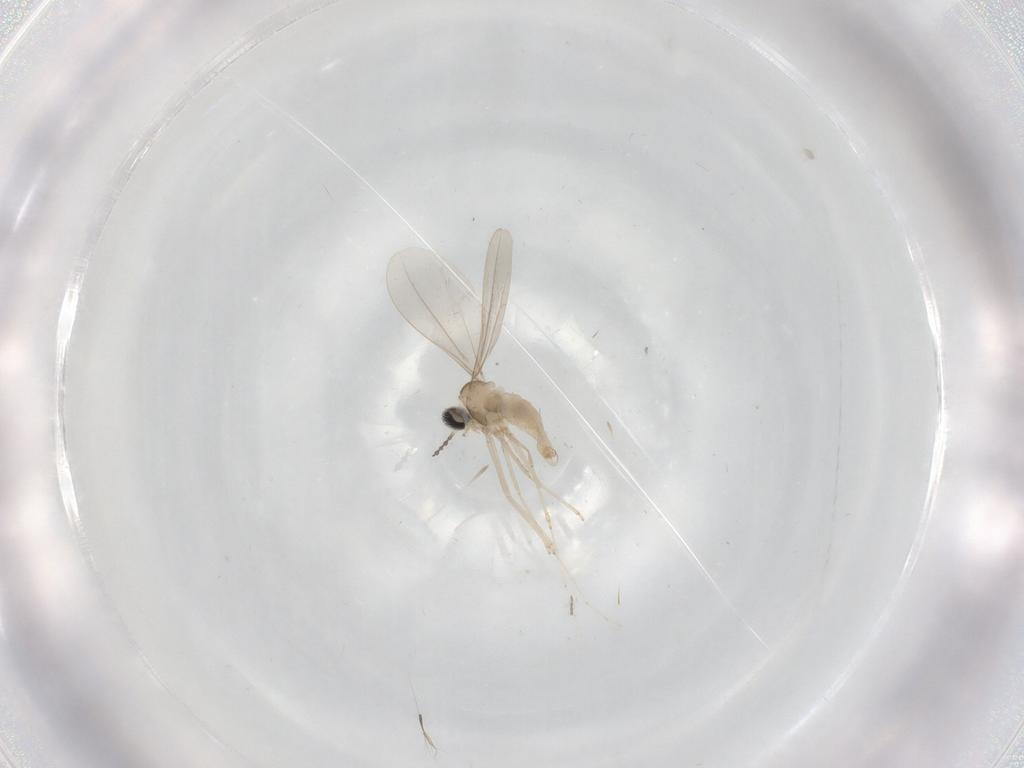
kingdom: Animalia
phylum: Arthropoda
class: Insecta
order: Diptera
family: Cecidomyiidae
